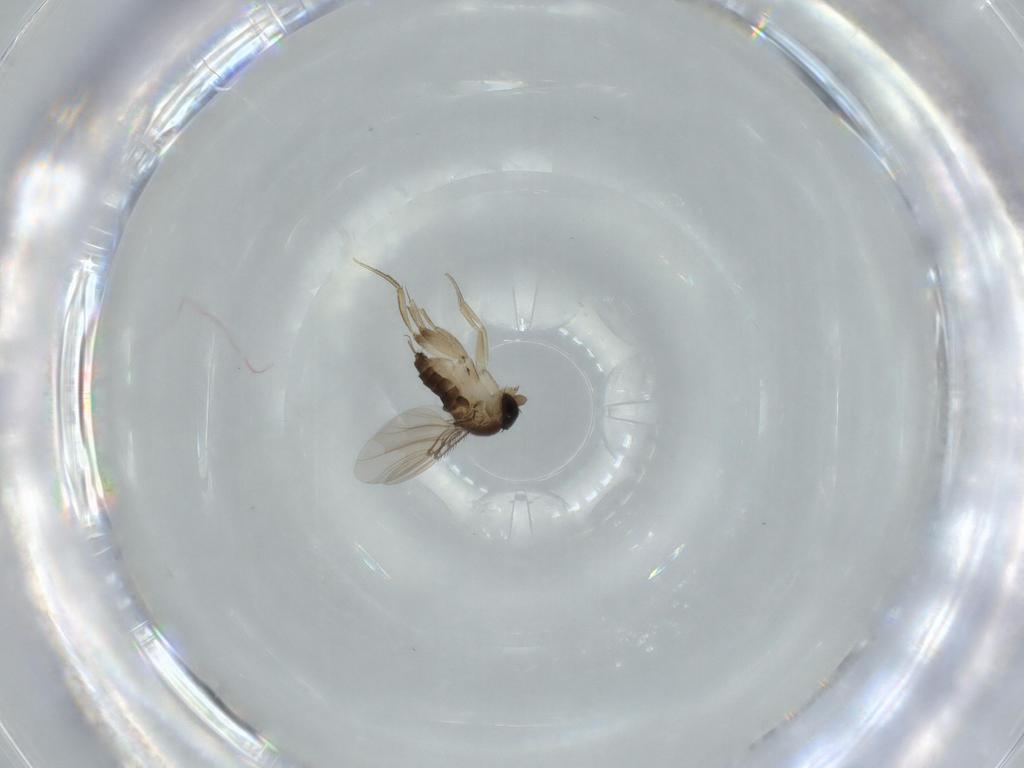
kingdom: Animalia
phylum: Arthropoda
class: Insecta
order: Diptera
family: Phoridae
